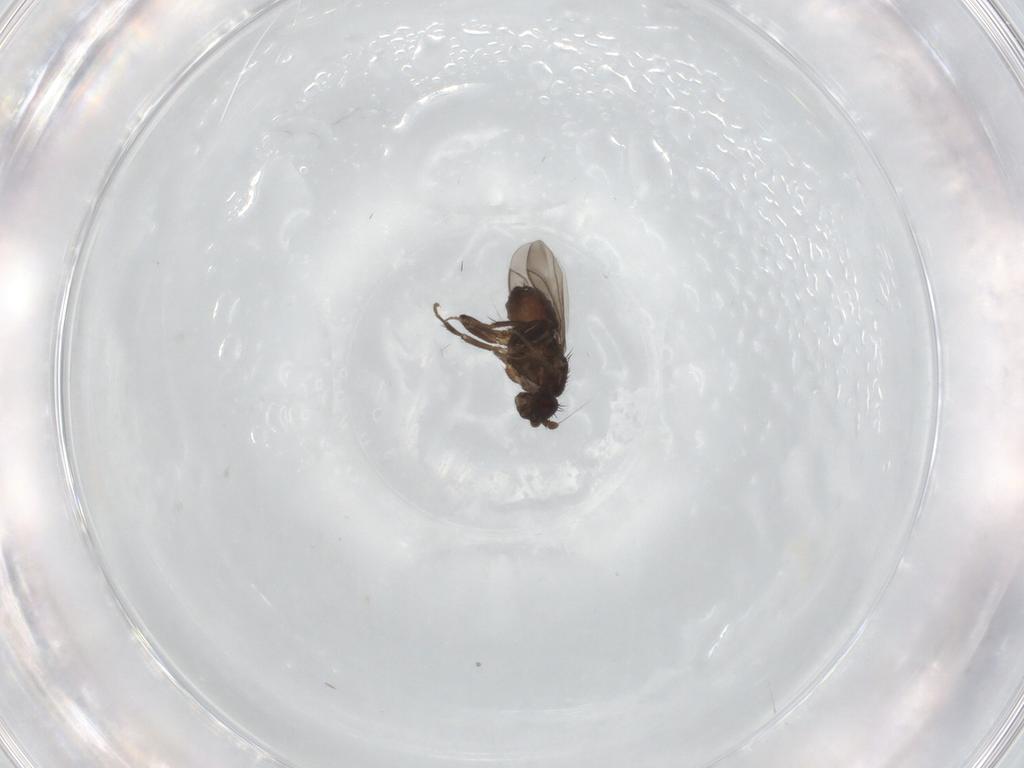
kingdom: Animalia
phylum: Arthropoda
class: Insecta
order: Diptera
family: Sphaeroceridae
